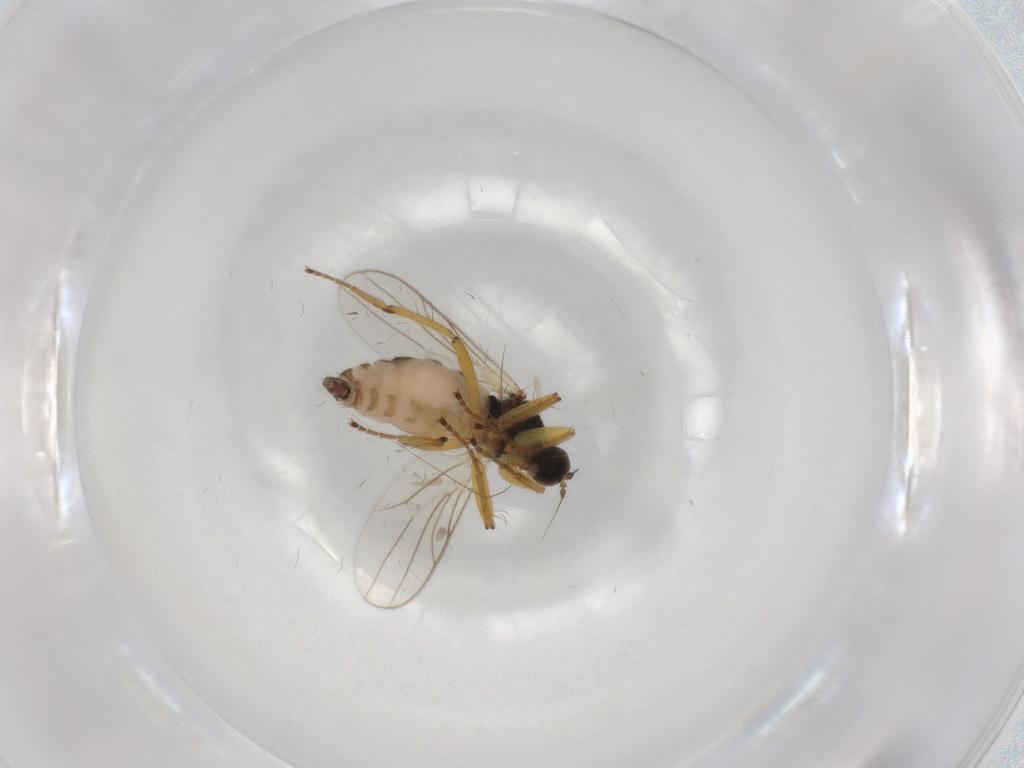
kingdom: Animalia
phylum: Arthropoda
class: Insecta
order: Diptera
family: Hybotidae
